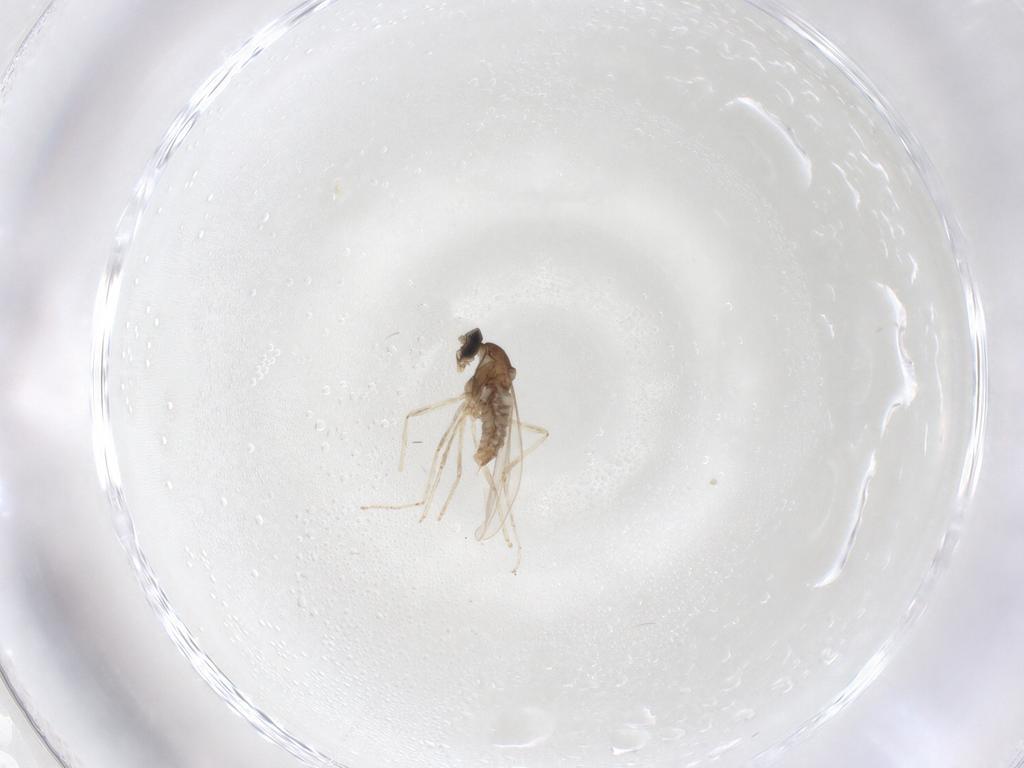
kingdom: Animalia
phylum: Arthropoda
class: Insecta
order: Diptera
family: Cecidomyiidae
